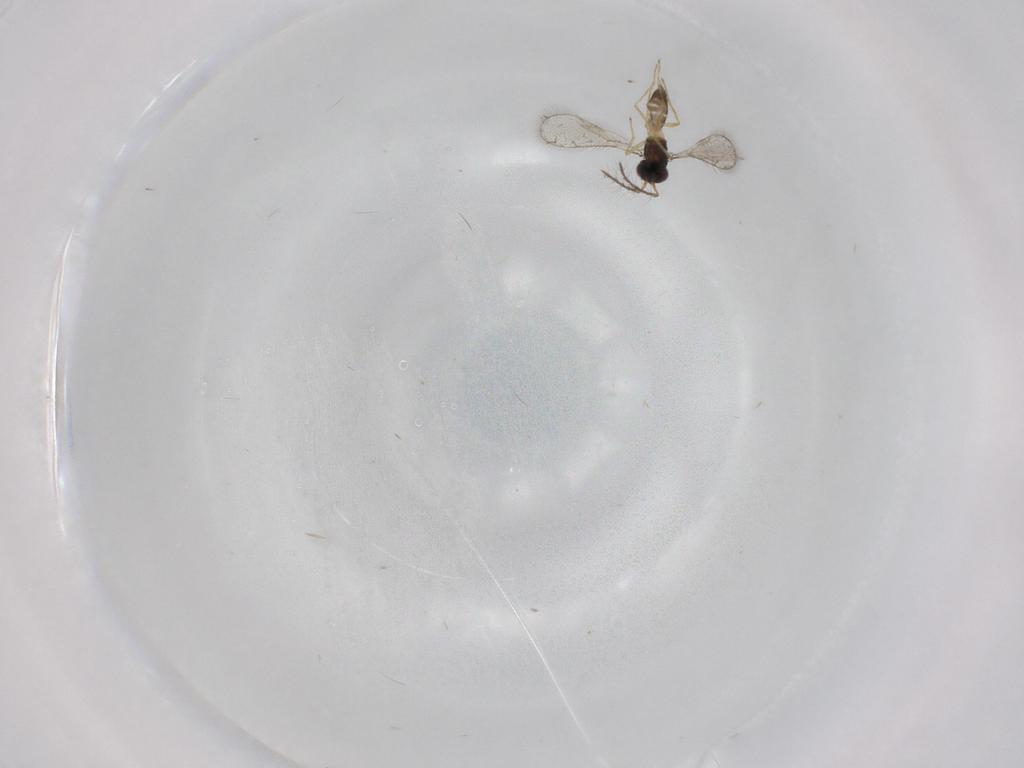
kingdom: Animalia
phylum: Arthropoda
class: Insecta
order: Hymenoptera
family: Eulophidae
